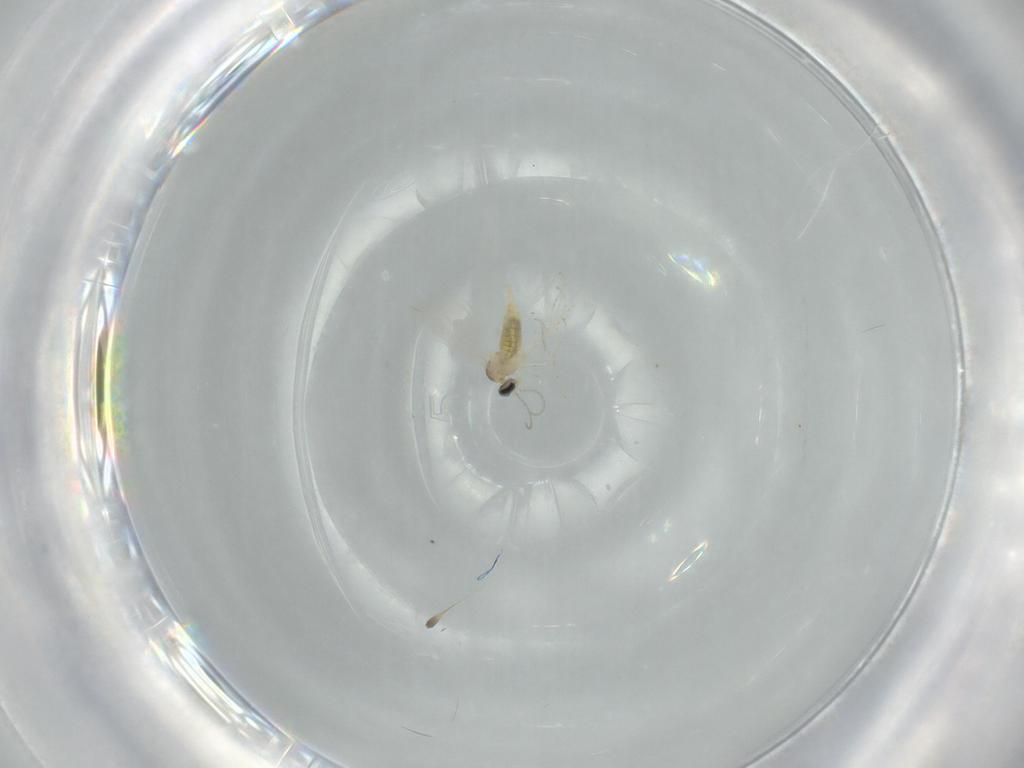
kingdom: Animalia
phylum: Arthropoda
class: Insecta
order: Diptera
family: Cecidomyiidae
